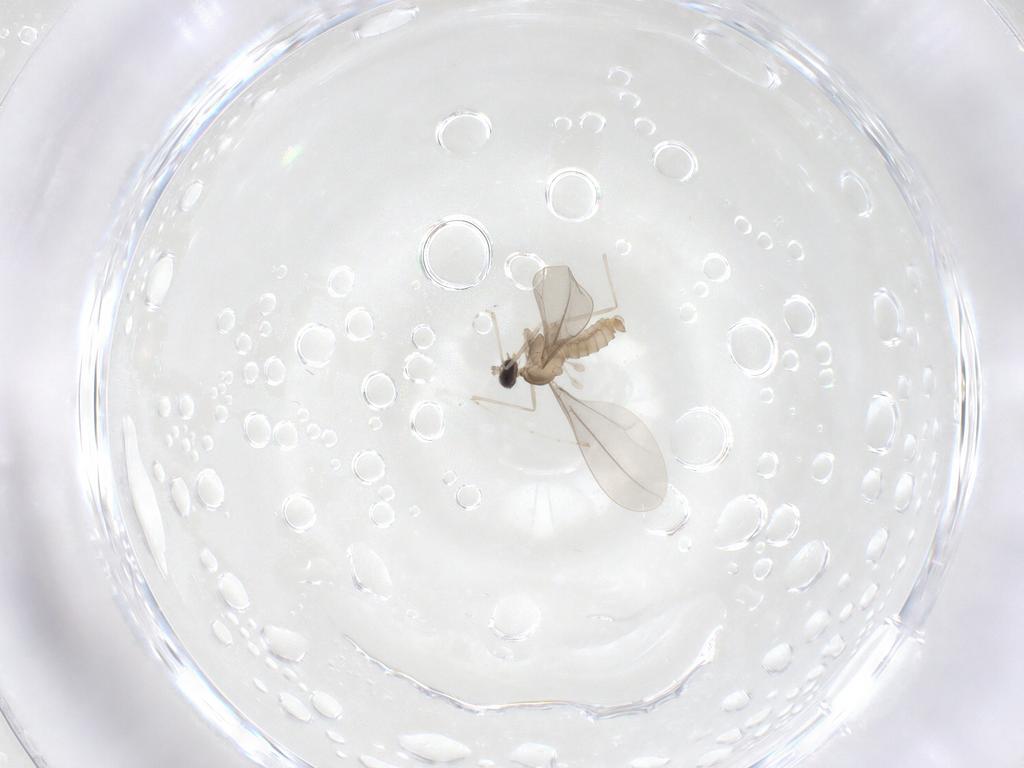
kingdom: Animalia
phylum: Arthropoda
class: Insecta
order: Diptera
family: Cecidomyiidae
